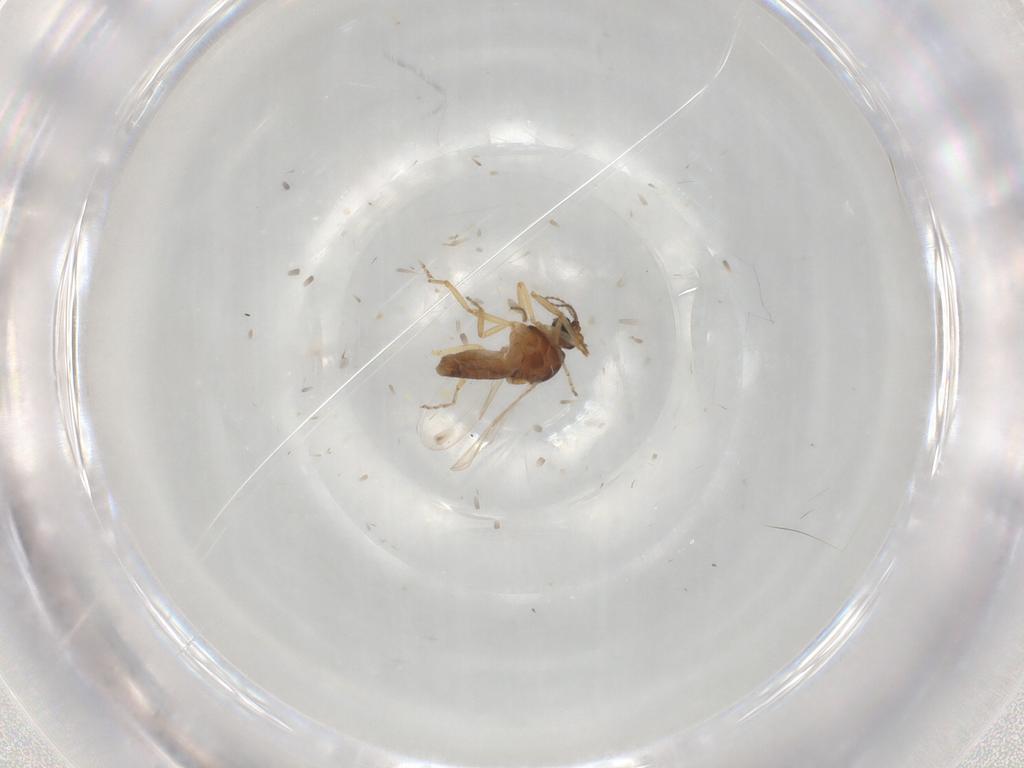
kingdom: Animalia
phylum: Arthropoda
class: Insecta
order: Diptera
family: Ceratopogonidae
